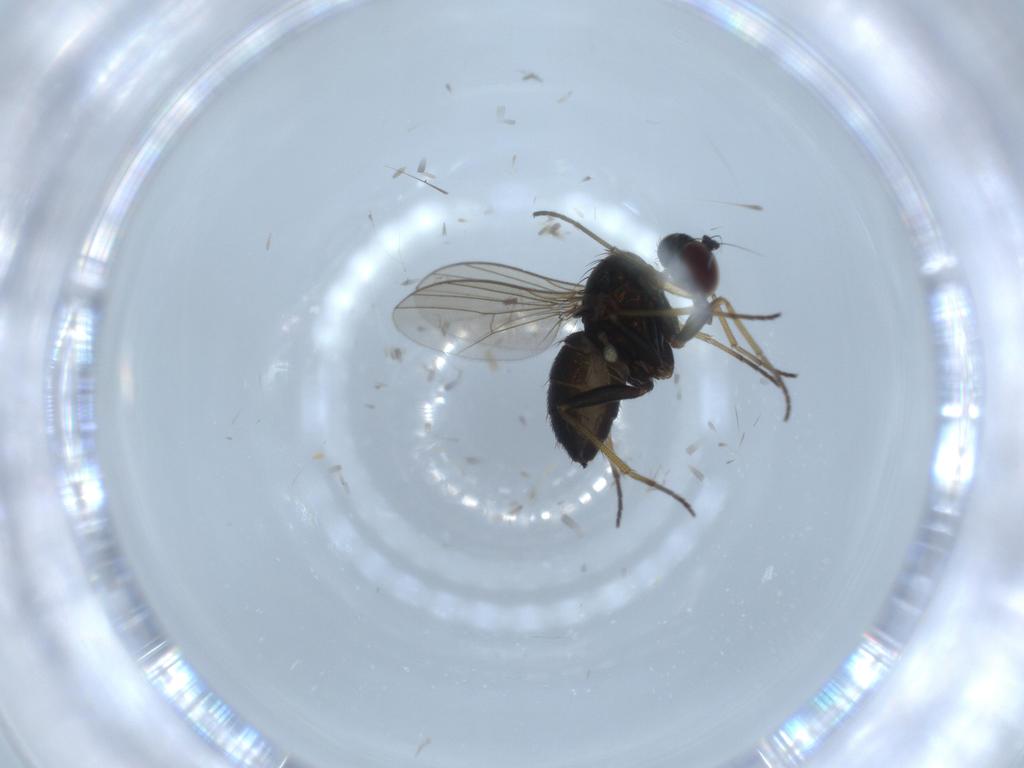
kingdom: Animalia
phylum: Arthropoda
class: Insecta
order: Diptera
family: Dolichopodidae
